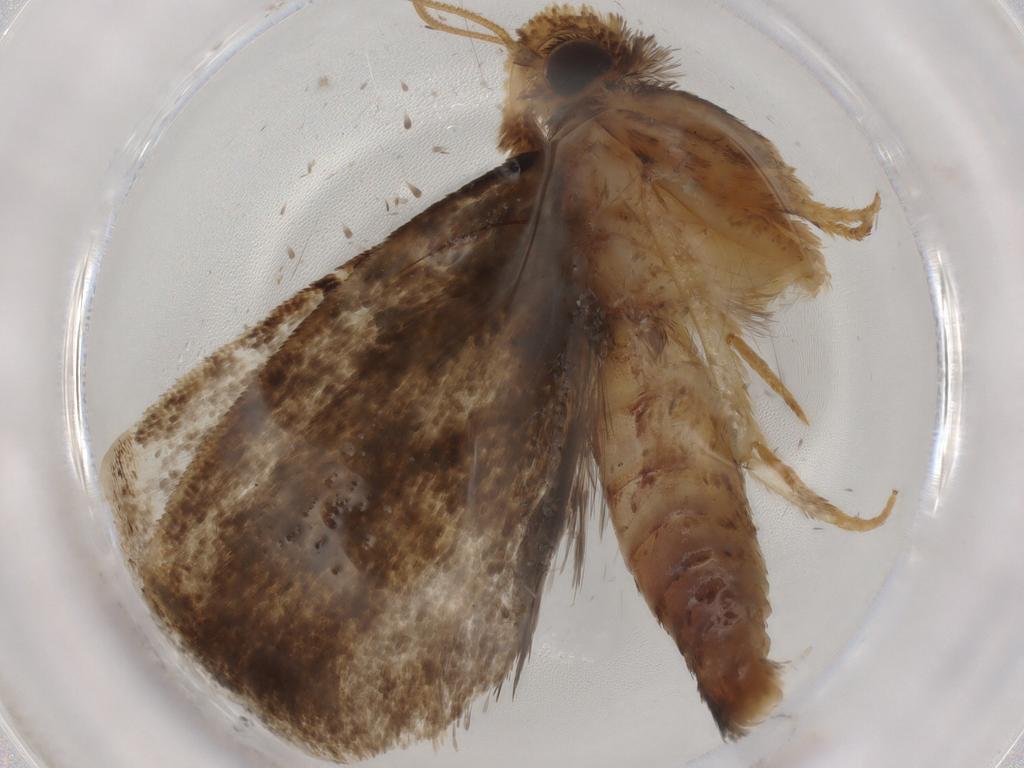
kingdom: Animalia
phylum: Arthropoda
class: Insecta
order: Lepidoptera
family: Tineidae
